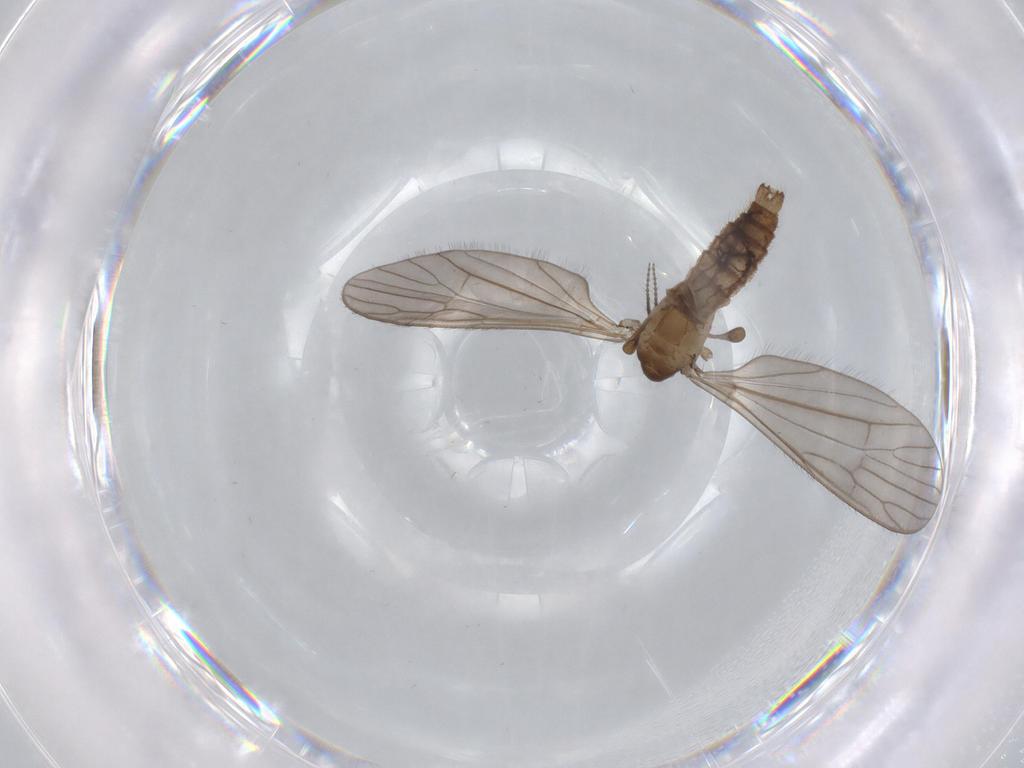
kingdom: Animalia
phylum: Arthropoda
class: Insecta
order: Diptera
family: Limoniidae
